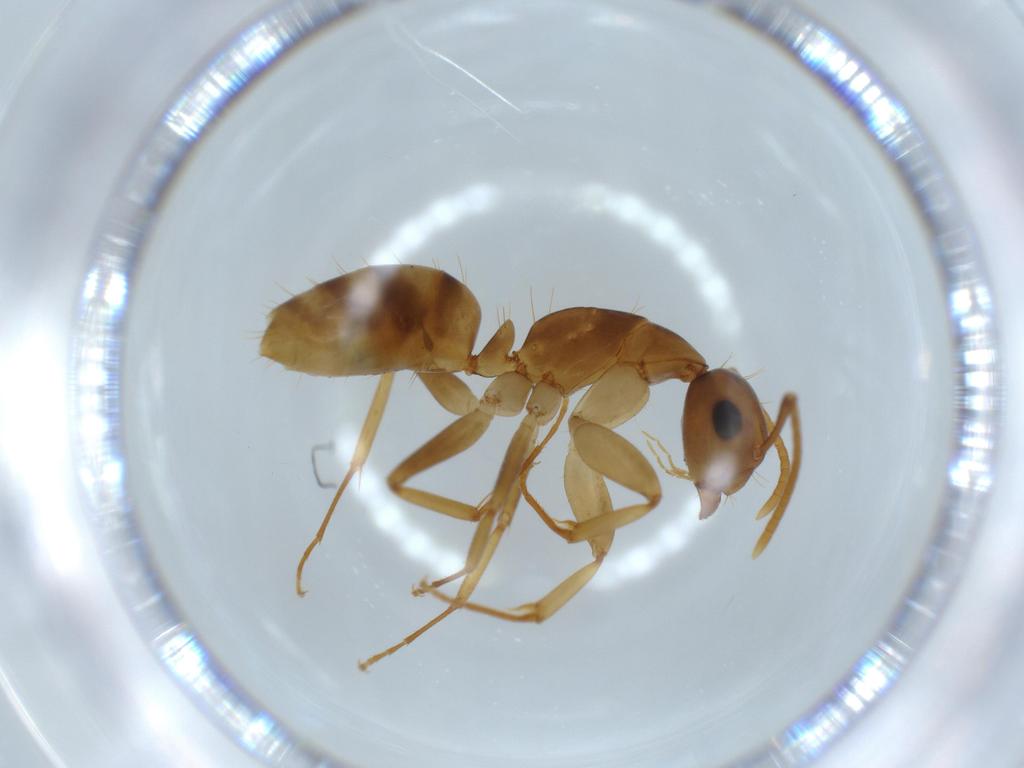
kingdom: Animalia
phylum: Arthropoda
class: Insecta
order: Hymenoptera
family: Formicidae
